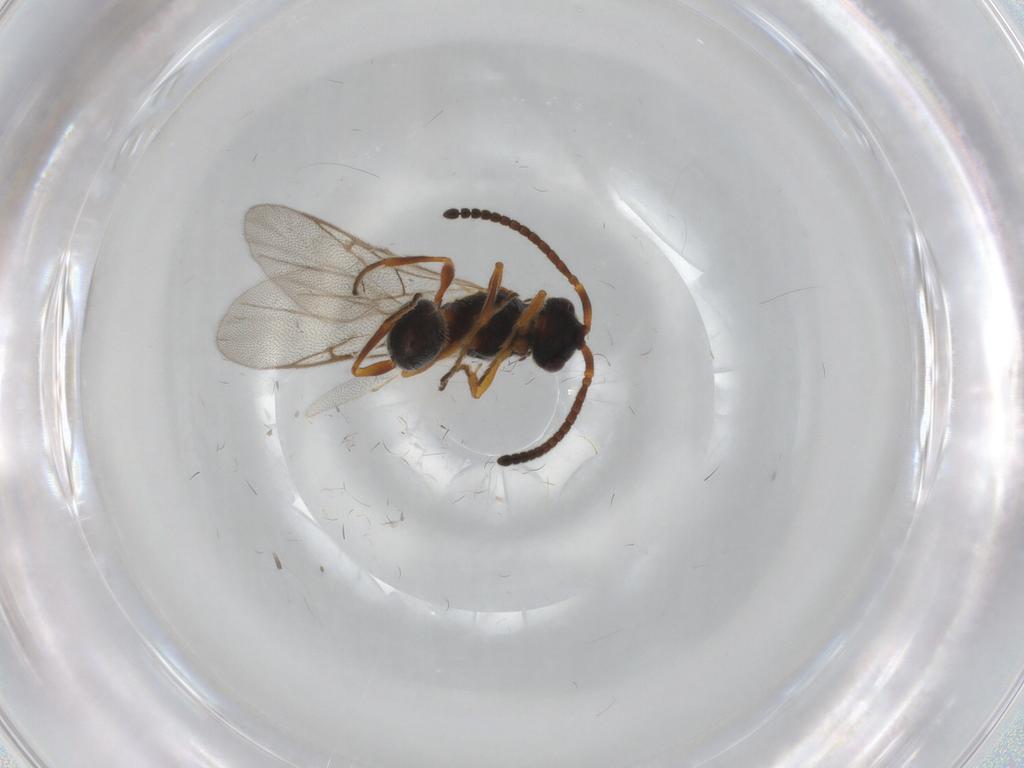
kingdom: Animalia
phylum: Arthropoda
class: Insecta
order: Hymenoptera
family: Diapriidae
